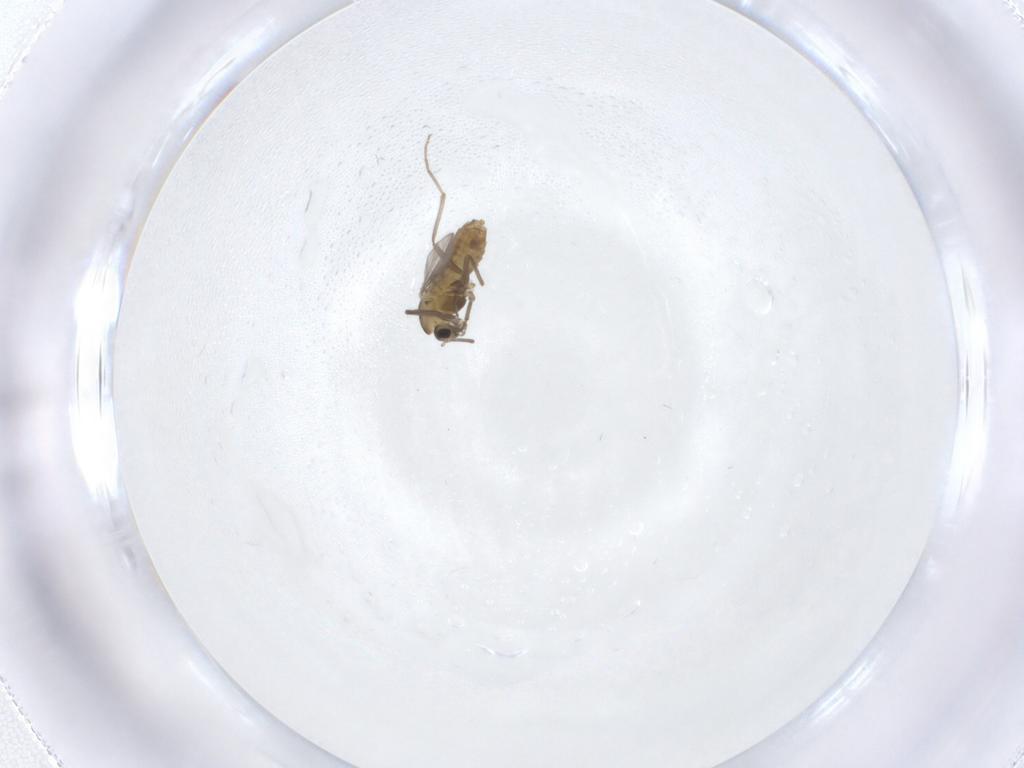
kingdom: Animalia
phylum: Arthropoda
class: Insecta
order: Diptera
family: Chironomidae
